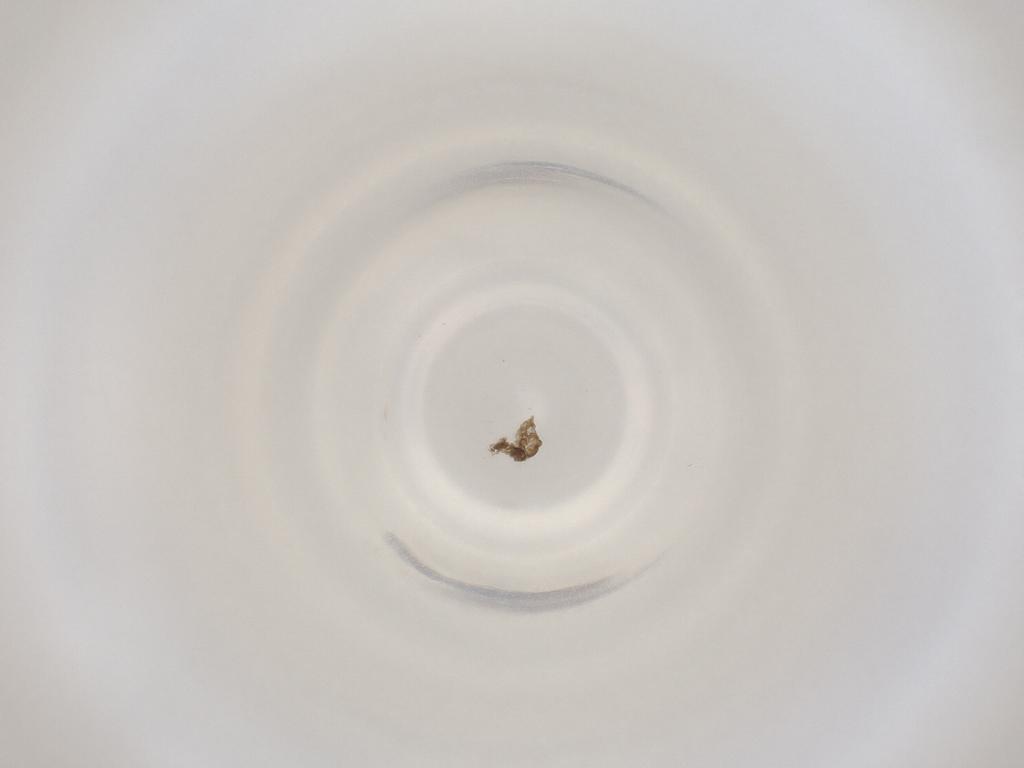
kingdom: Animalia
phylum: Arthropoda
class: Insecta
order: Diptera
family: Cecidomyiidae
